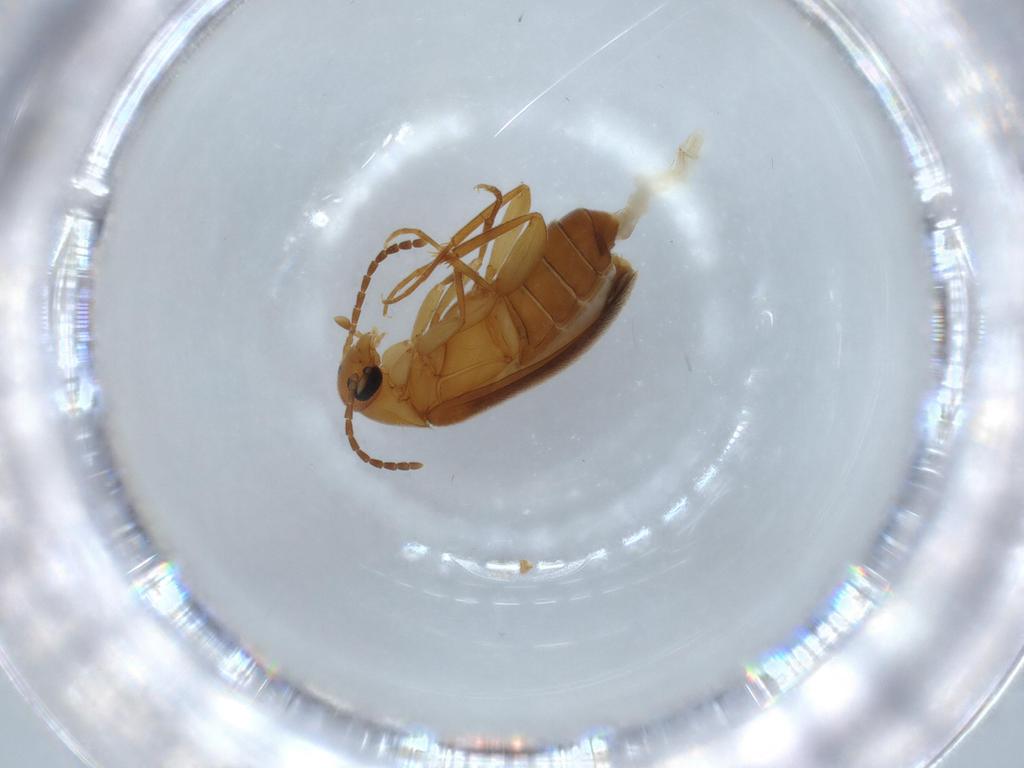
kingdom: Animalia
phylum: Arthropoda
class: Insecta
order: Coleoptera
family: Scraptiidae
